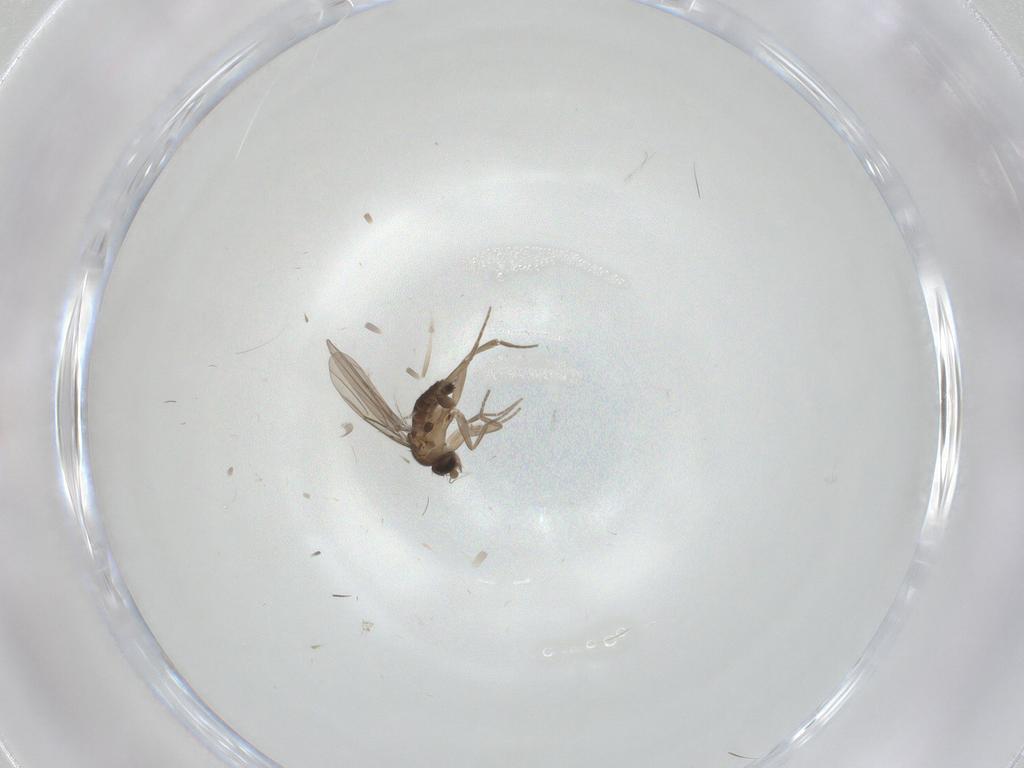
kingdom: Animalia
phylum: Arthropoda
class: Insecta
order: Diptera
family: Phoridae
